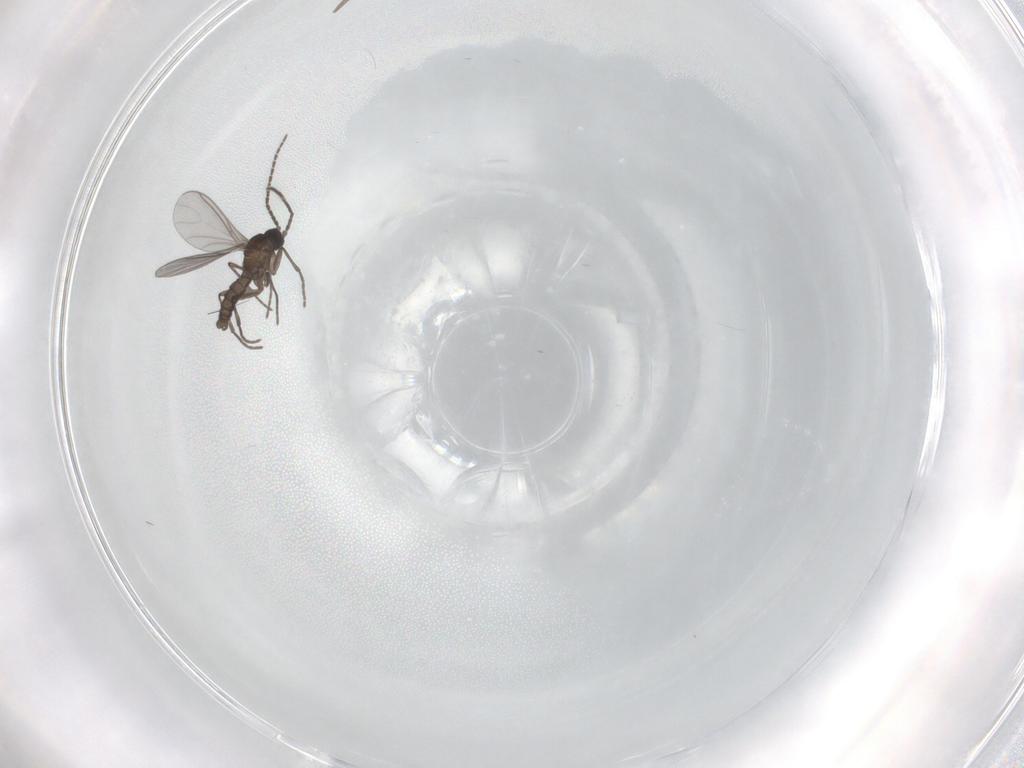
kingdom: Animalia
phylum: Arthropoda
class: Insecta
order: Diptera
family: Sciaridae
